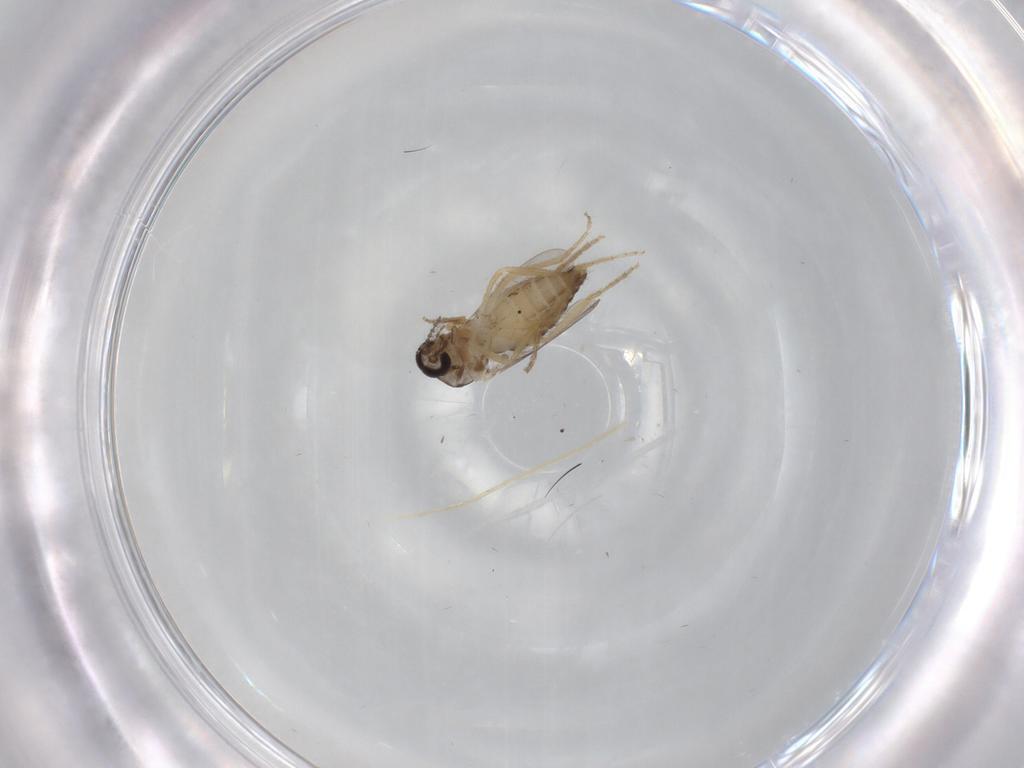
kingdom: Animalia
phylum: Arthropoda
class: Insecta
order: Diptera
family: Ceratopogonidae
